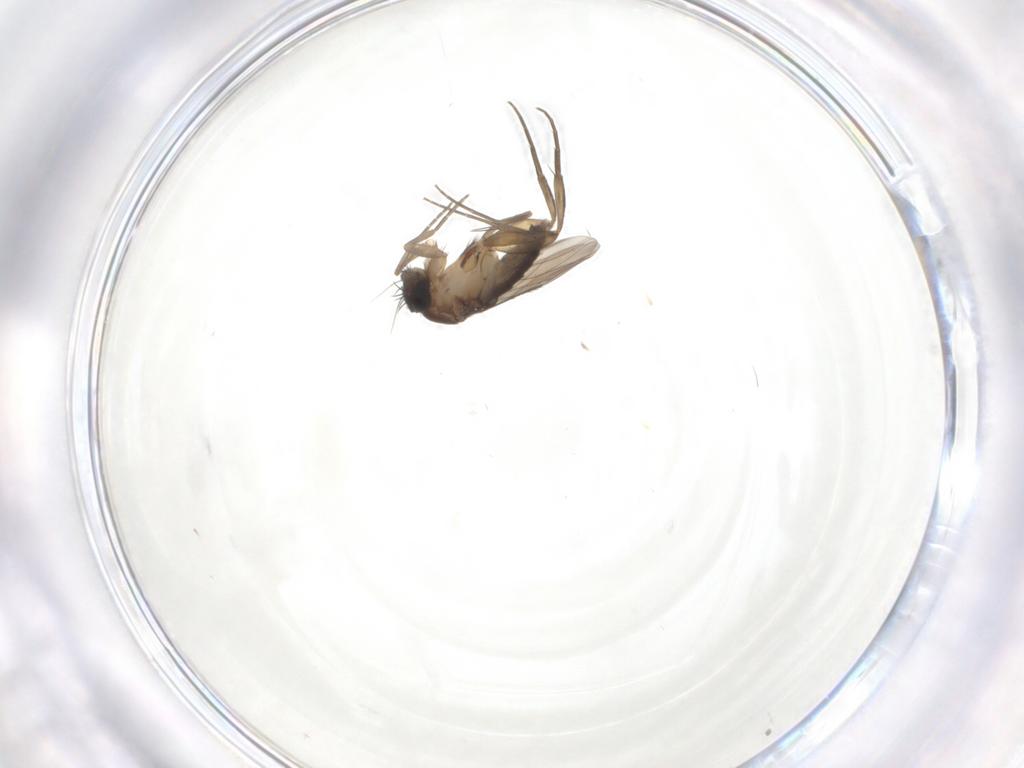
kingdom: Animalia
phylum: Arthropoda
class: Insecta
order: Diptera
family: Phoridae
